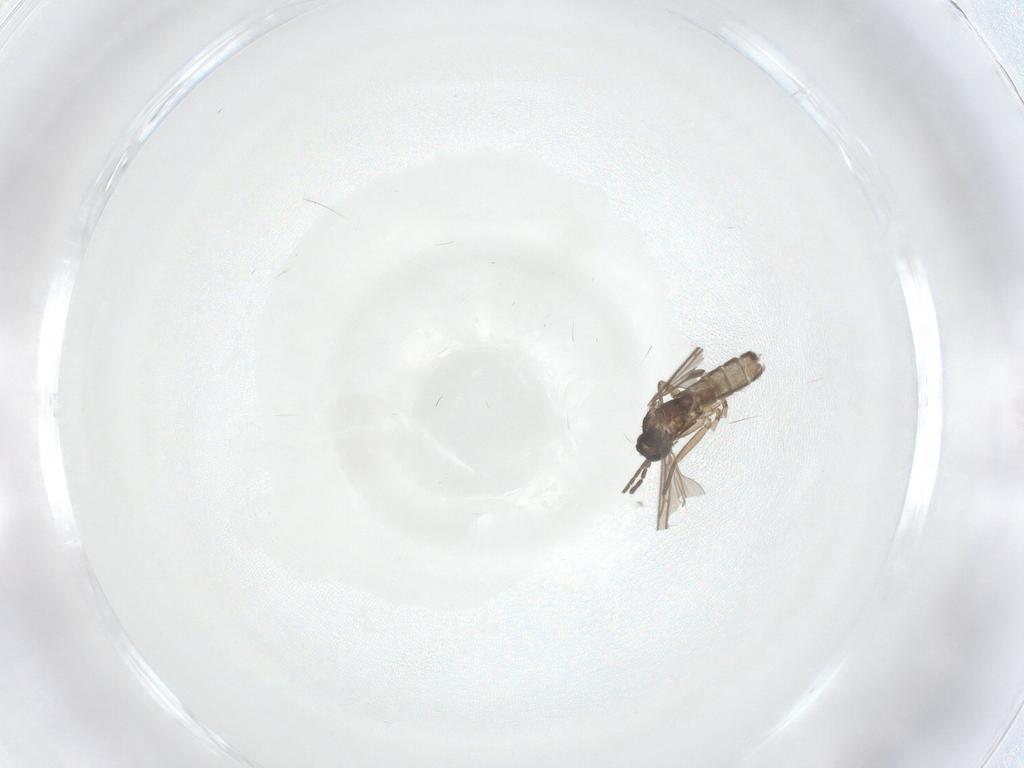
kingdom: Animalia
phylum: Arthropoda
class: Insecta
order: Diptera
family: Sciaridae
